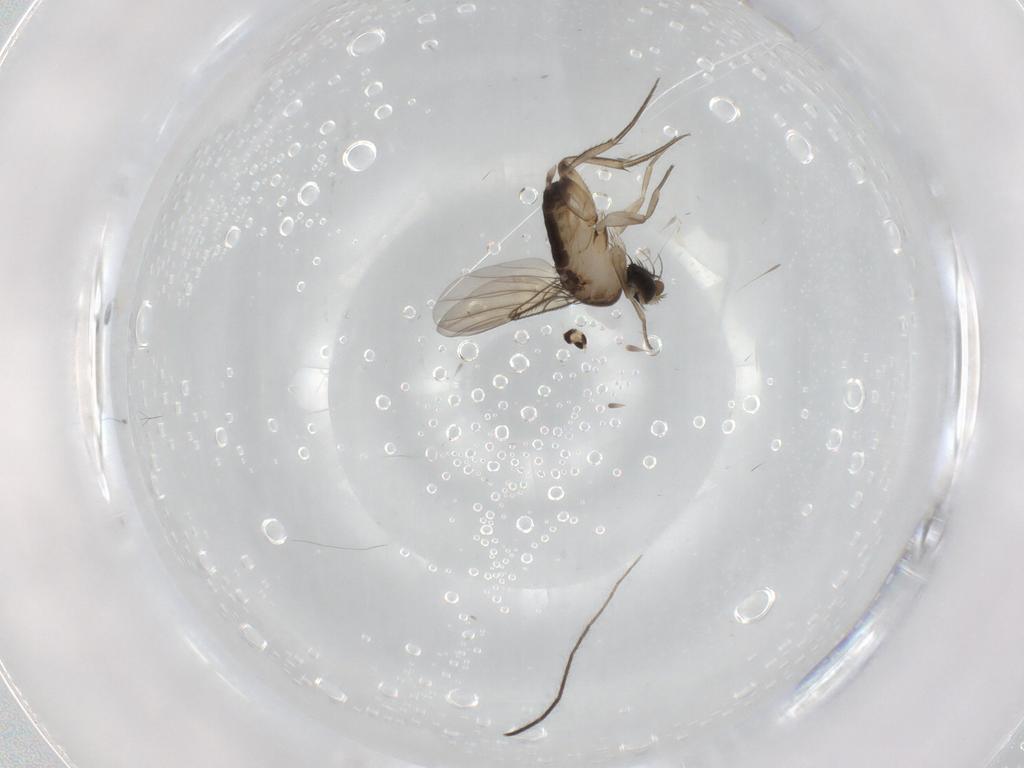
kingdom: Animalia
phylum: Arthropoda
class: Insecta
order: Diptera
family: Phoridae
